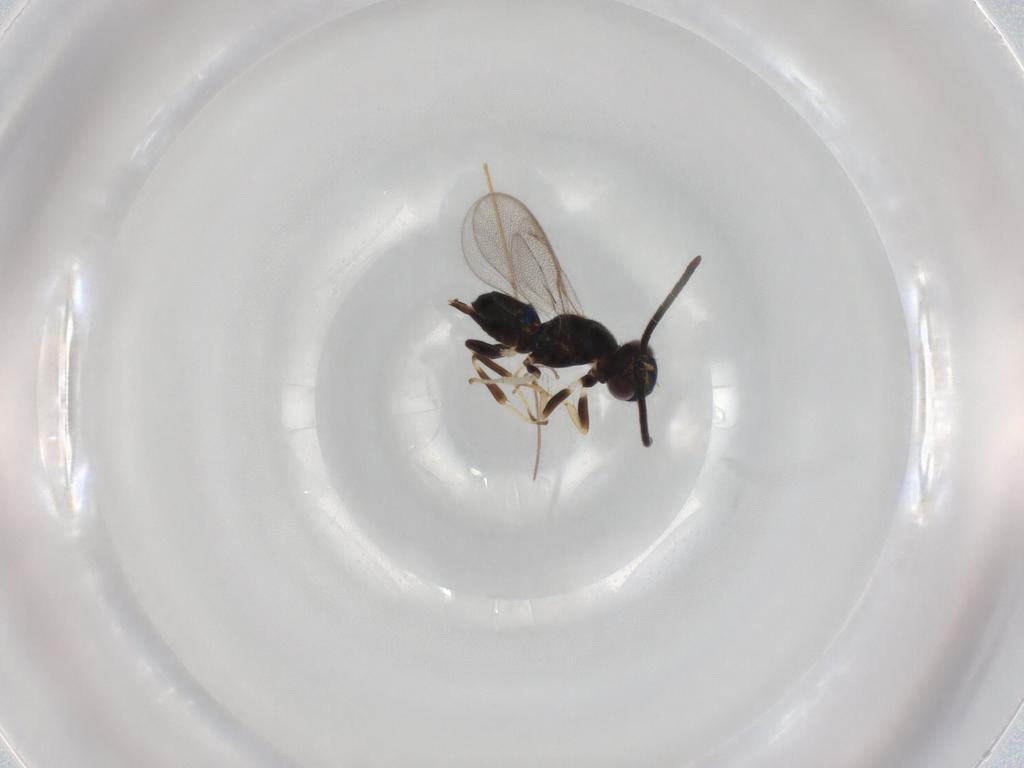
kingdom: Animalia
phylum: Arthropoda
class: Insecta
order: Hymenoptera
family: Eupelmidae
